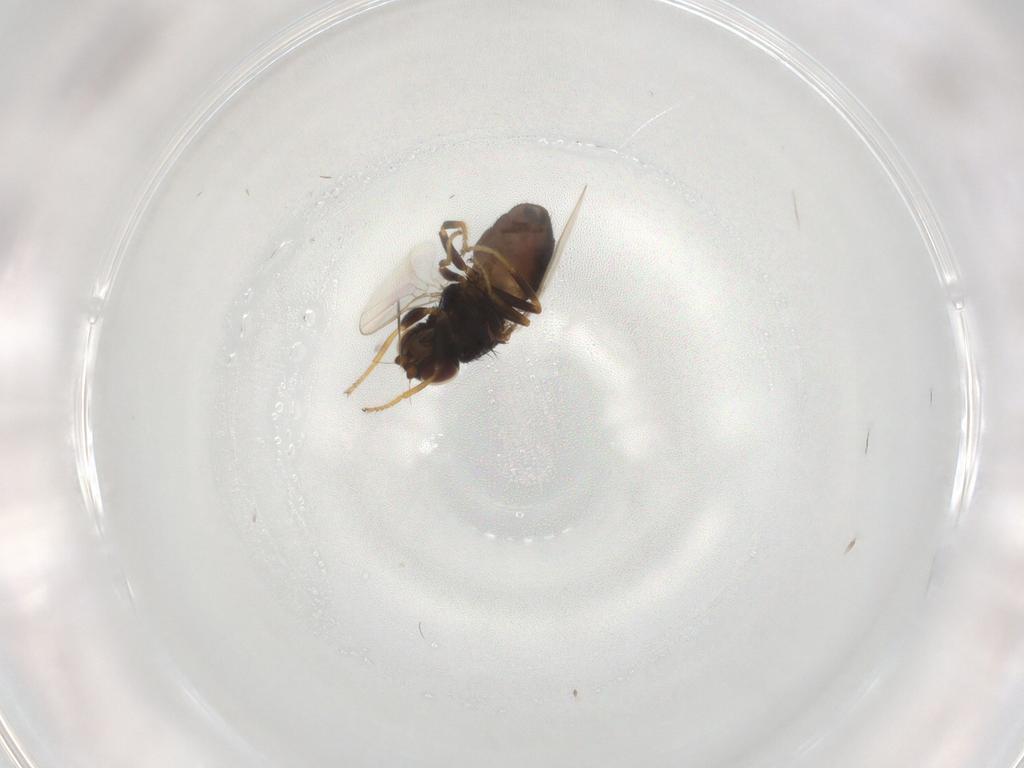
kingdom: Animalia
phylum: Arthropoda
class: Insecta
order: Diptera
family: Chloropidae
